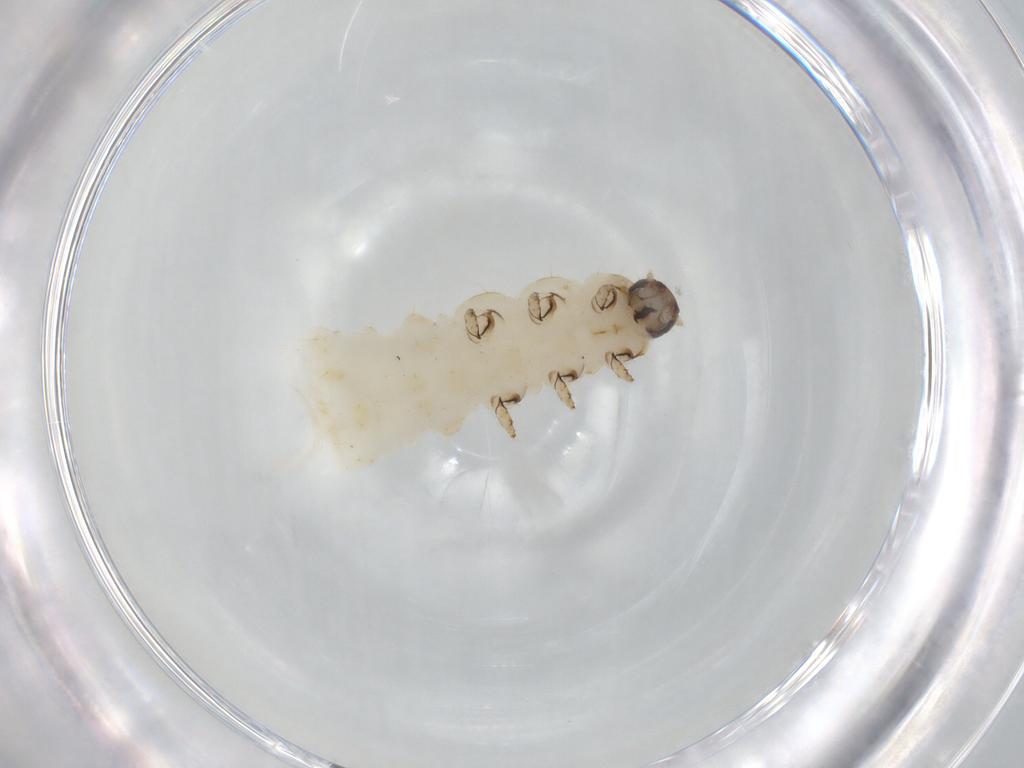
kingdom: Animalia
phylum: Arthropoda
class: Insecta
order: Coleoptera
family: Chrysomelidae
